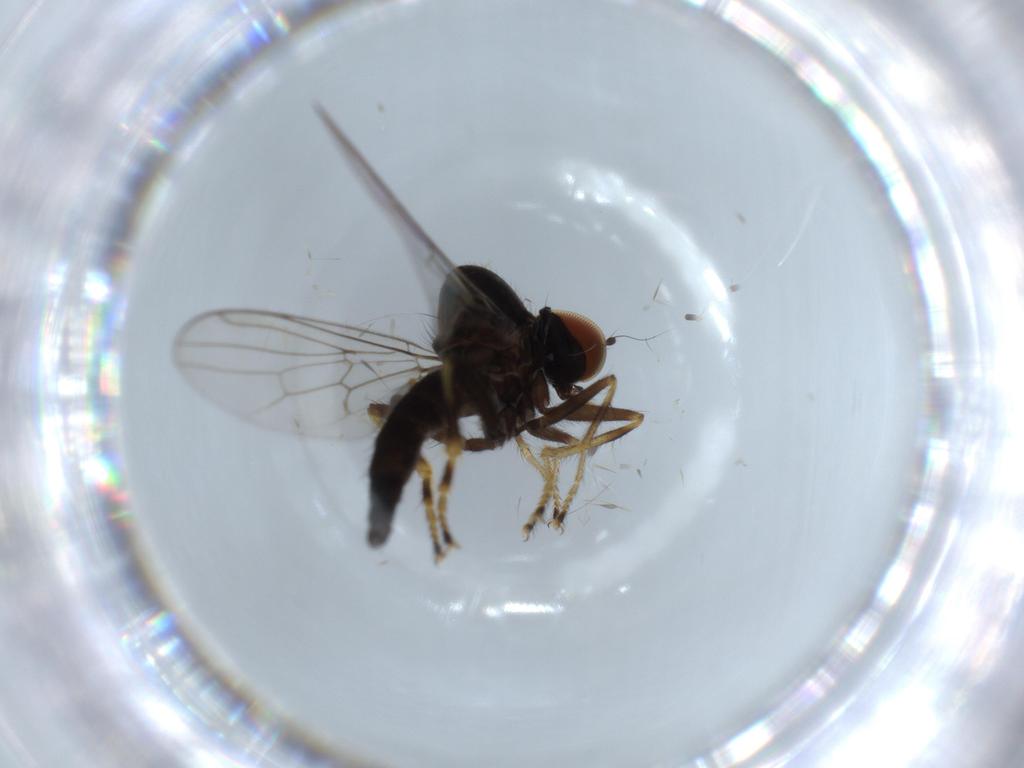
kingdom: Animalia
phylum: Arthropoda
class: Insecta
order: Diptera
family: Hybotidae
